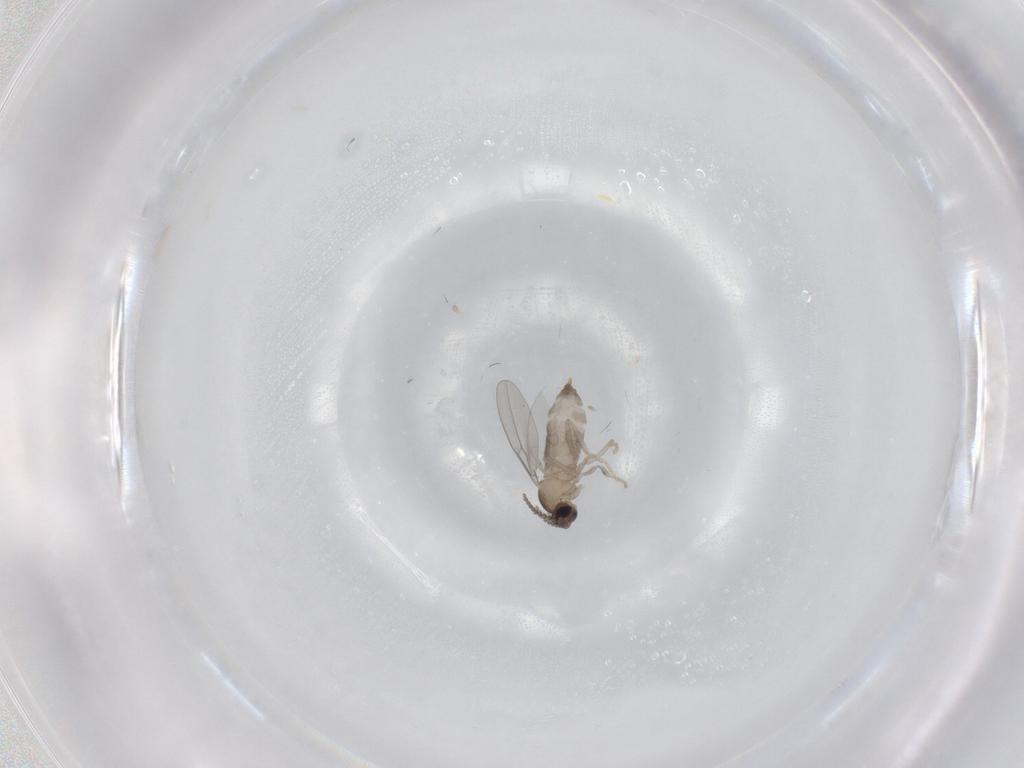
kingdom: Animalia
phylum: Arthropoda
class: Insecta
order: Diptera
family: Cecidomyiidae
